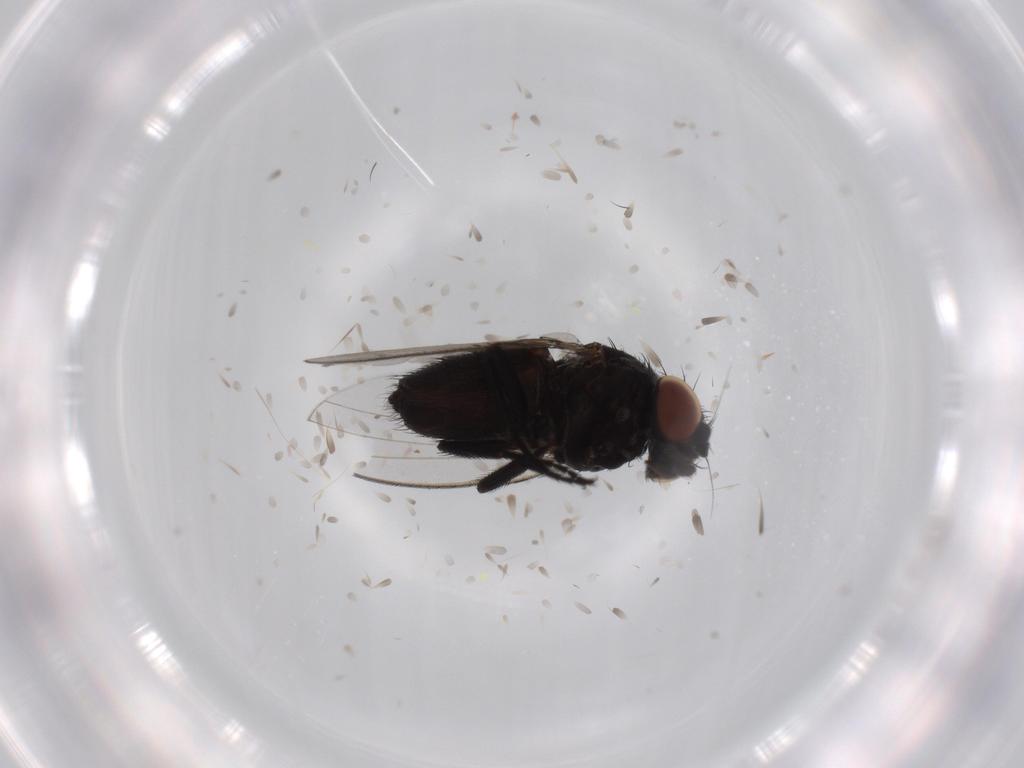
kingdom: Animalia
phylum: Arthropoda
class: Insecta
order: Diptera
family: Milichiidae
